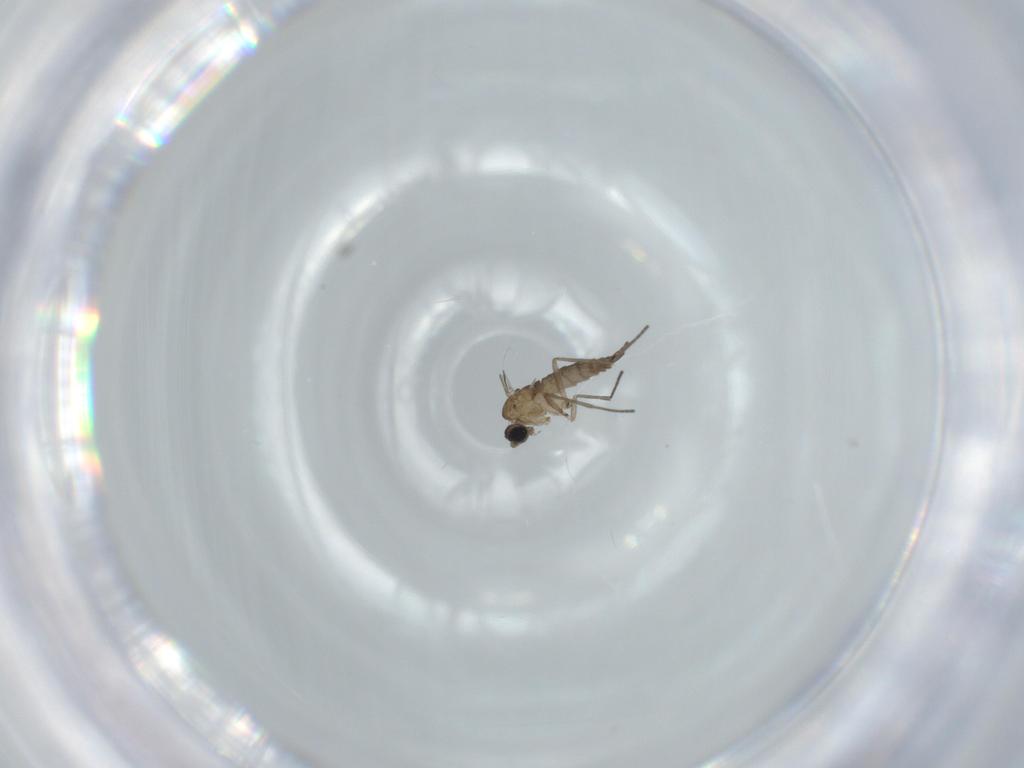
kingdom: Animalia
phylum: Arthropoda
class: Insecta
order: Diptera
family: Sciaridae
